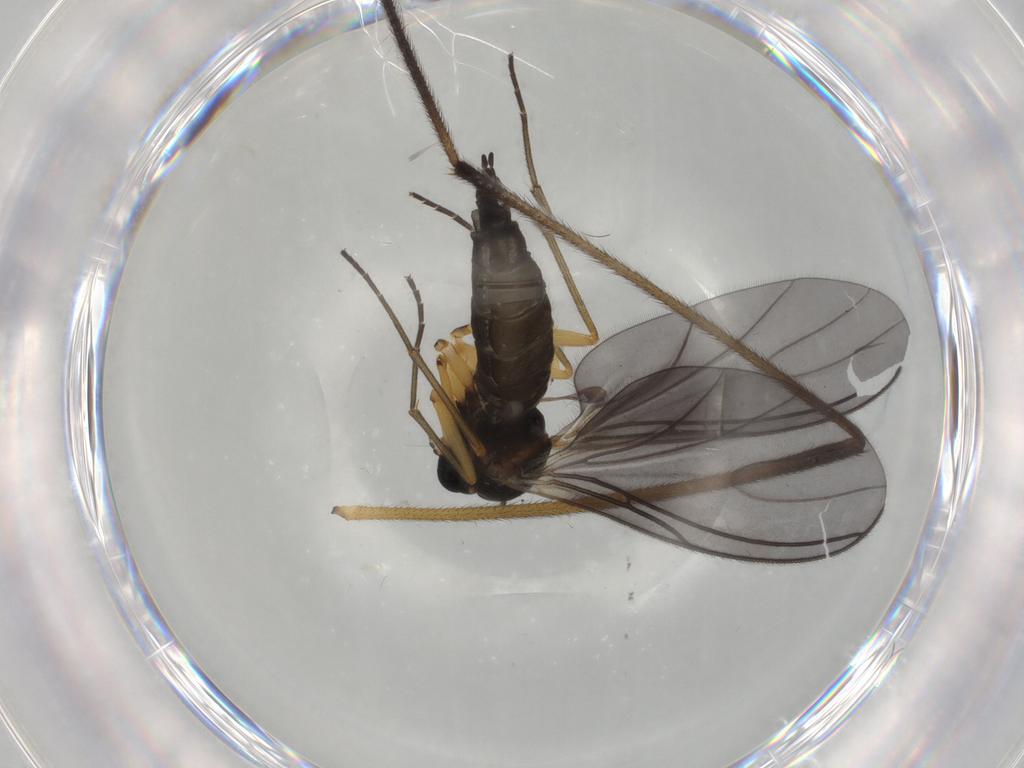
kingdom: Animalia
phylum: Arthropoda
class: Insecta
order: Diptera
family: Sciaridae
